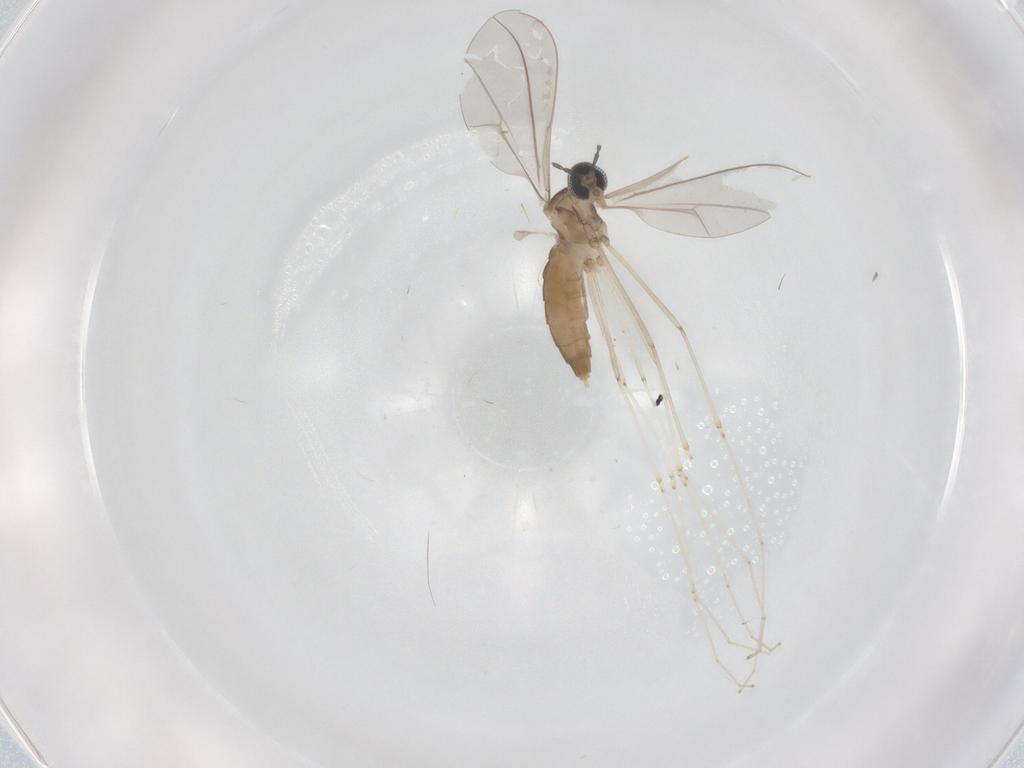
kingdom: Animalia
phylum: Arthropoda
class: Insecta
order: Diptera
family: Cecidomyiidae
